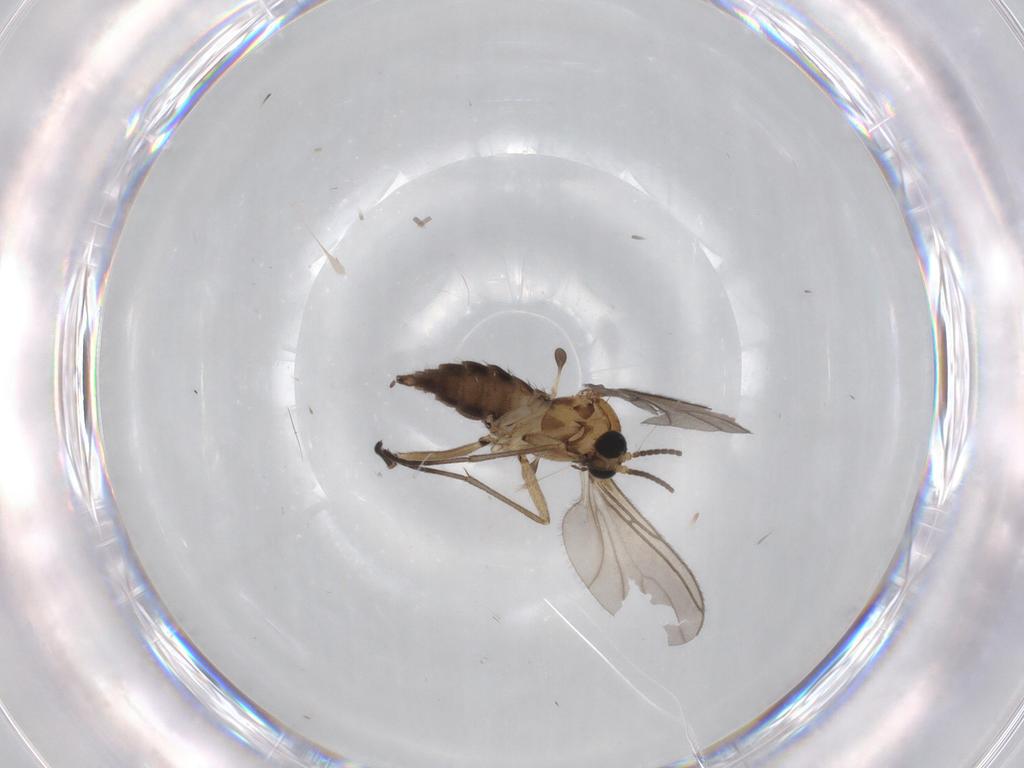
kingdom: Animalia
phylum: Arthropoda
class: Insecta
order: Diptera
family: Sciaridae
